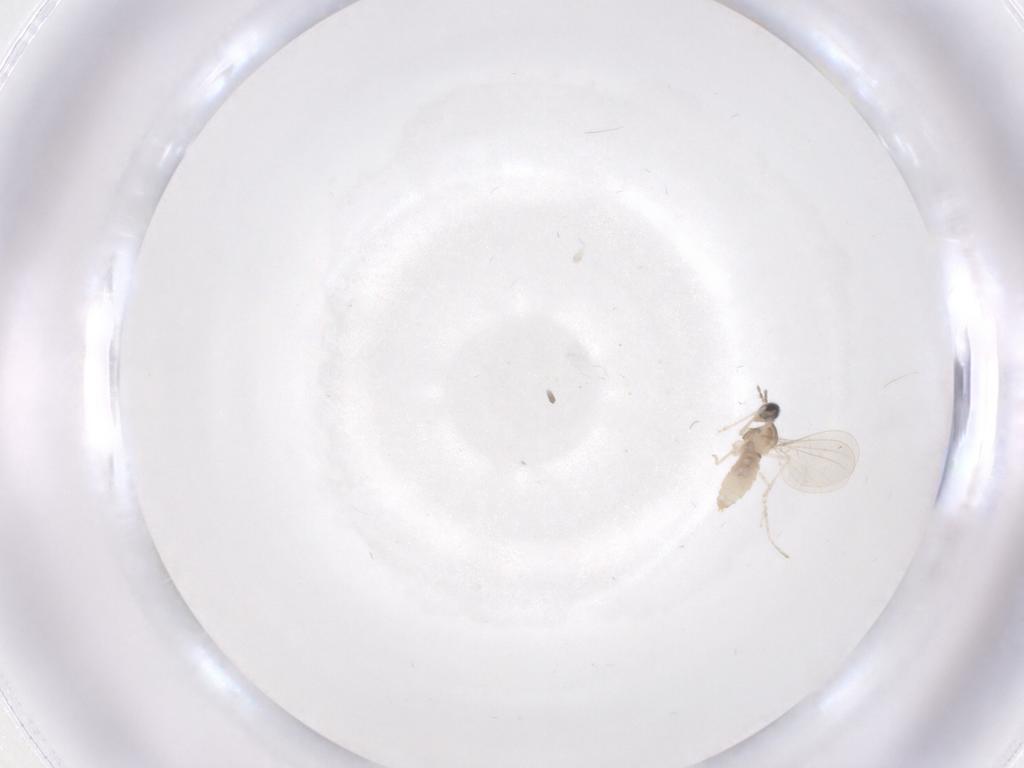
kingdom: Animalia
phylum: Arthropoda
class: Insecta
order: Diptera
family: Cecidomyiidae
